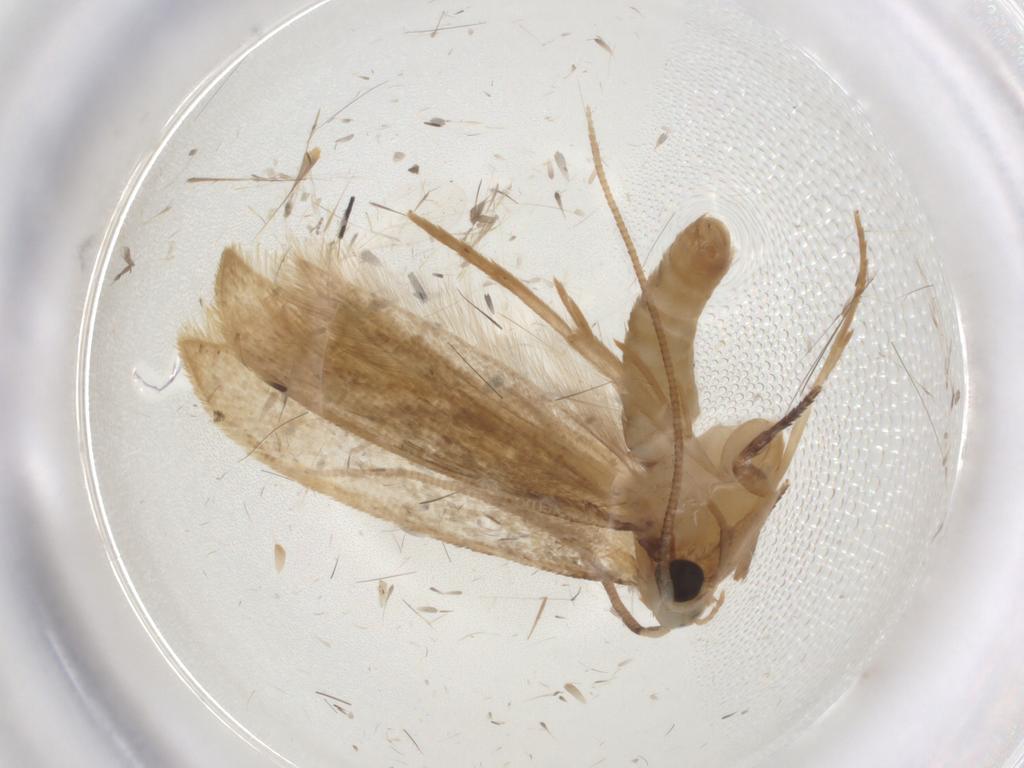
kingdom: Animalia
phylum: Arthropoda
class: Insecta
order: Lepidoptera
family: Tineidae
